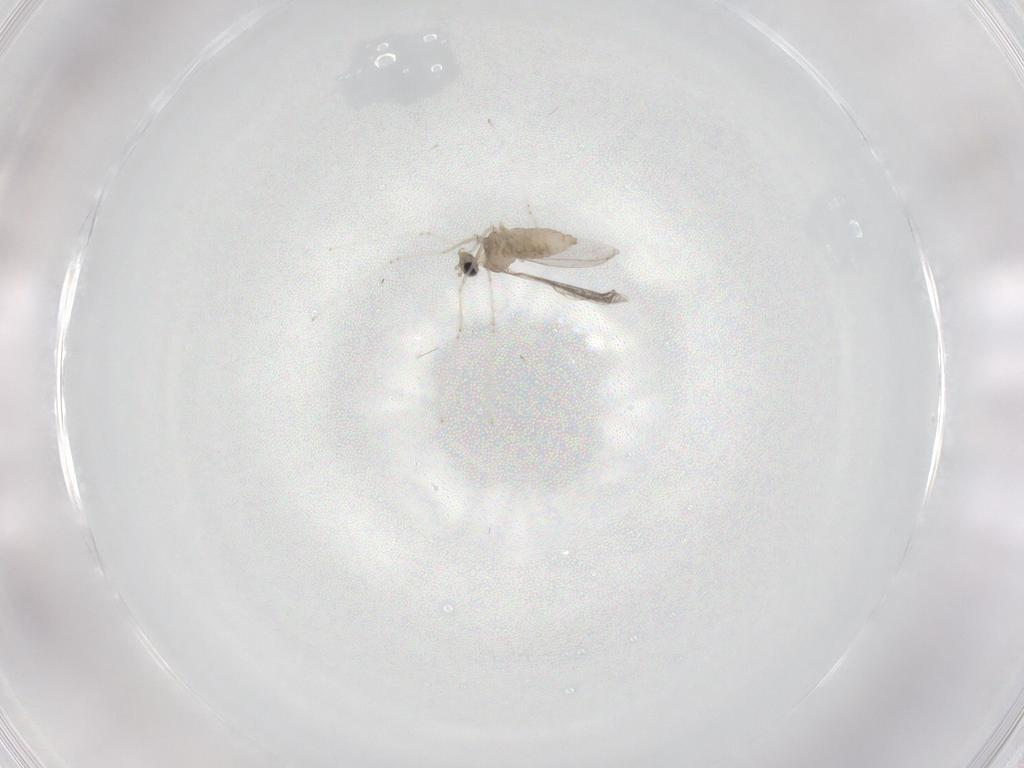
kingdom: Animalia
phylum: Arthropoda
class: Insecta
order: Diptera
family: Cecidomyiidae
